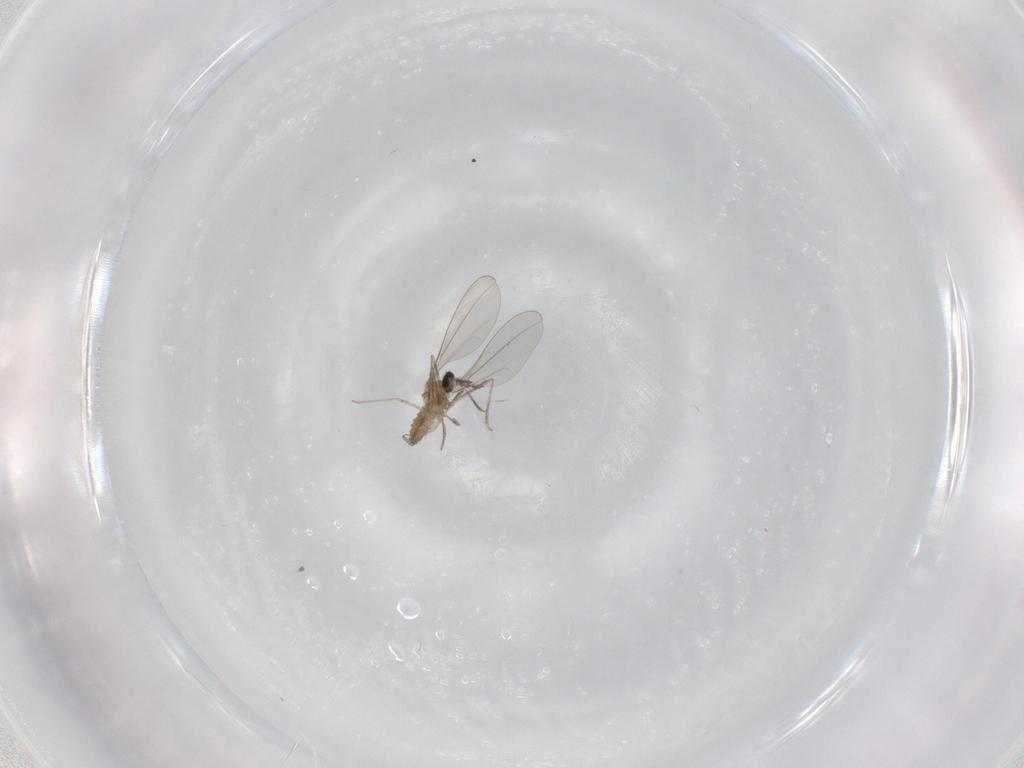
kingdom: Animalia
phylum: Arthropoda
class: Insecta
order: Diptera
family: Cecidomyiidae
